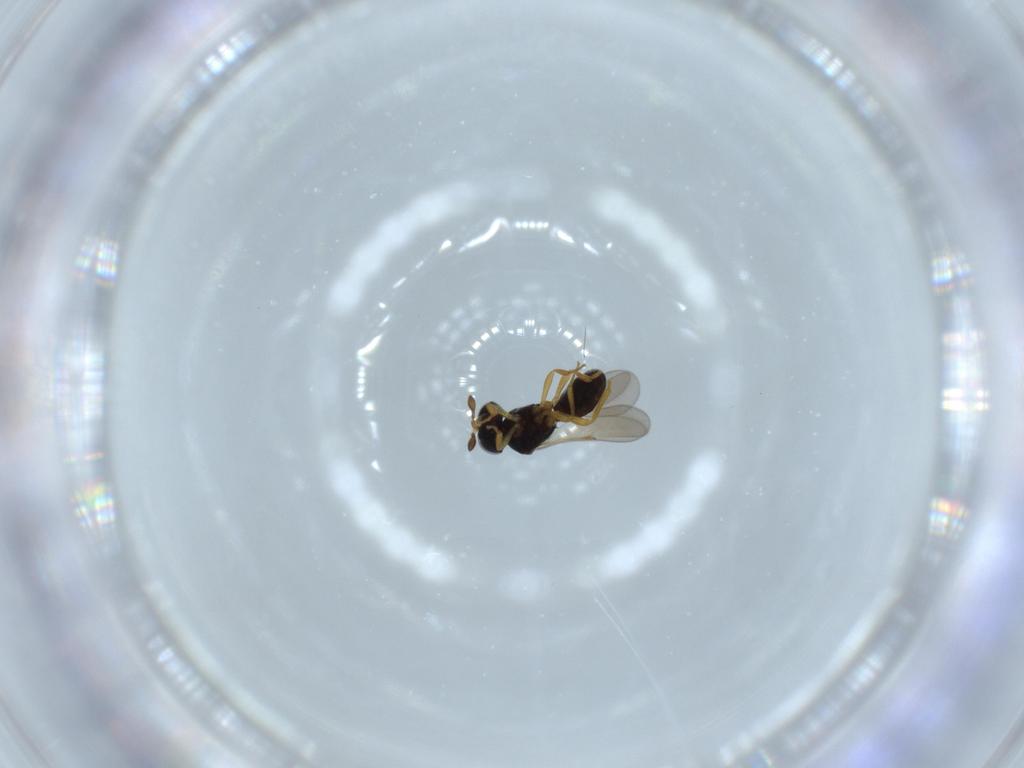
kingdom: Animalia
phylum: Arthropoda
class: Insecta
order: Hymenoptera
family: Scelionidae
